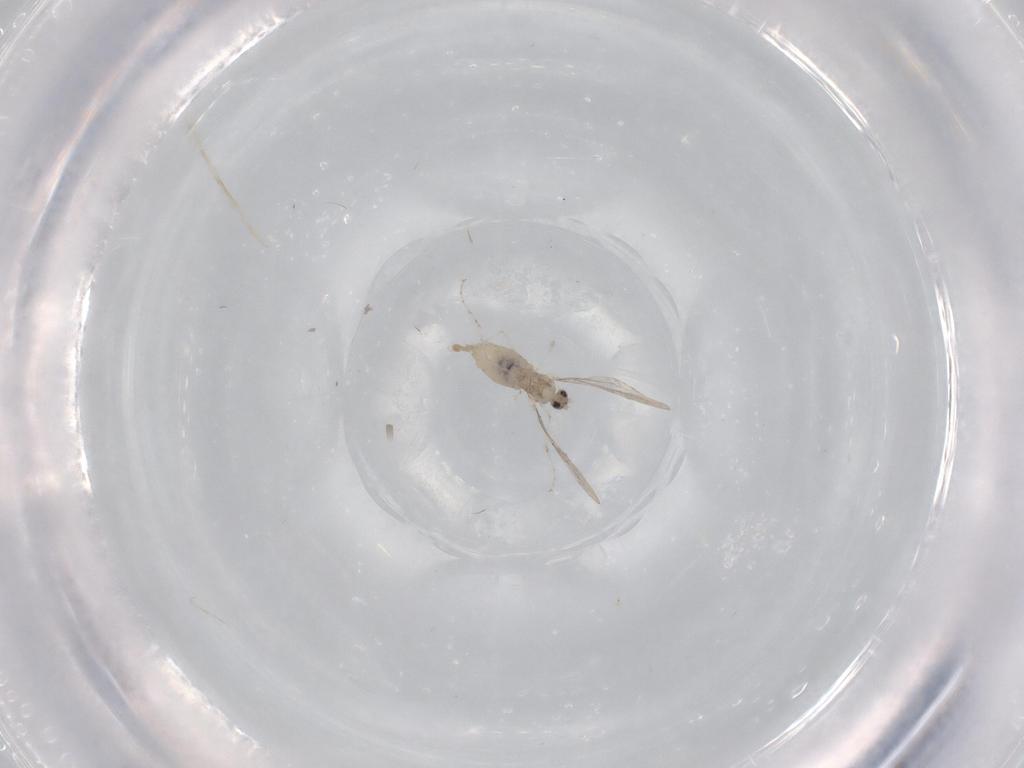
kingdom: Animalia
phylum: Arthropoda
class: Insecta
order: Diptera
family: Cecidomyiidae
